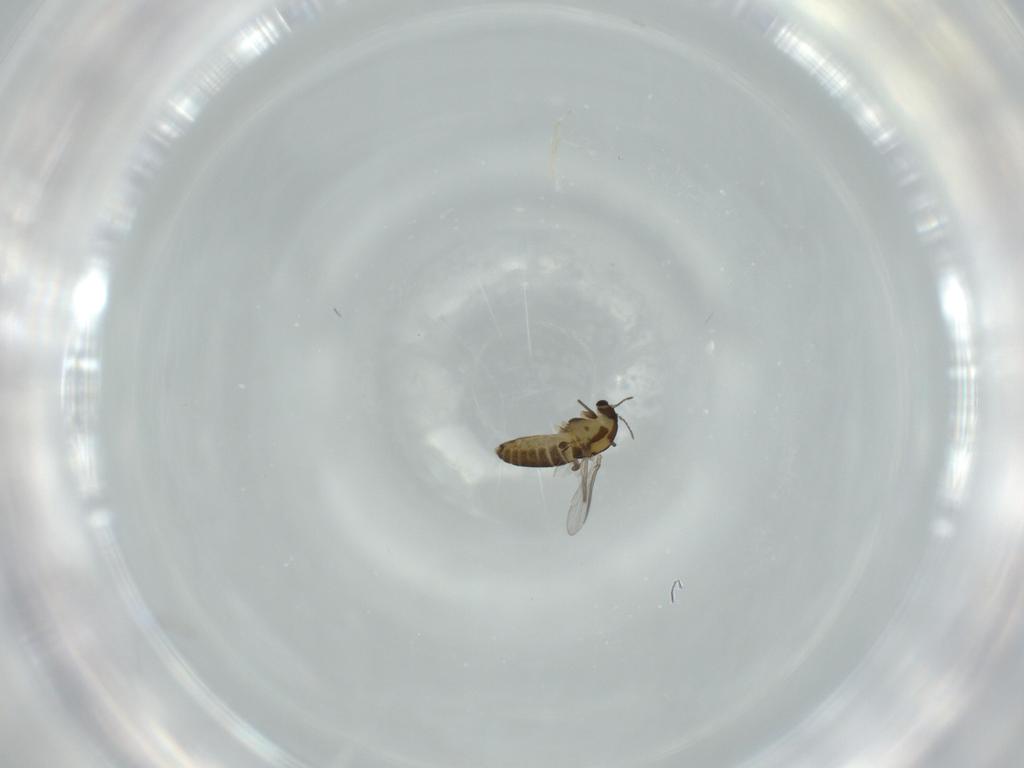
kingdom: Animalia
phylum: Arthropoda
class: Insecta
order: Diptera
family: Chironomidae
